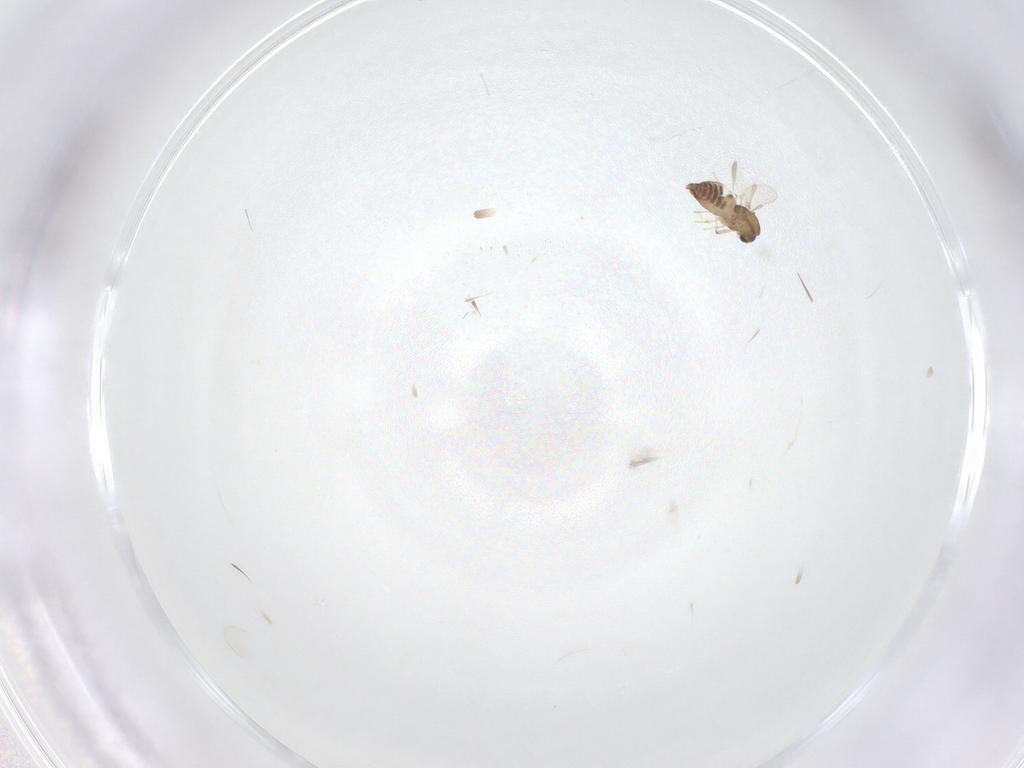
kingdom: Animalia
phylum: Arthropoda
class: Insecta
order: Diptera
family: Chironomidae
